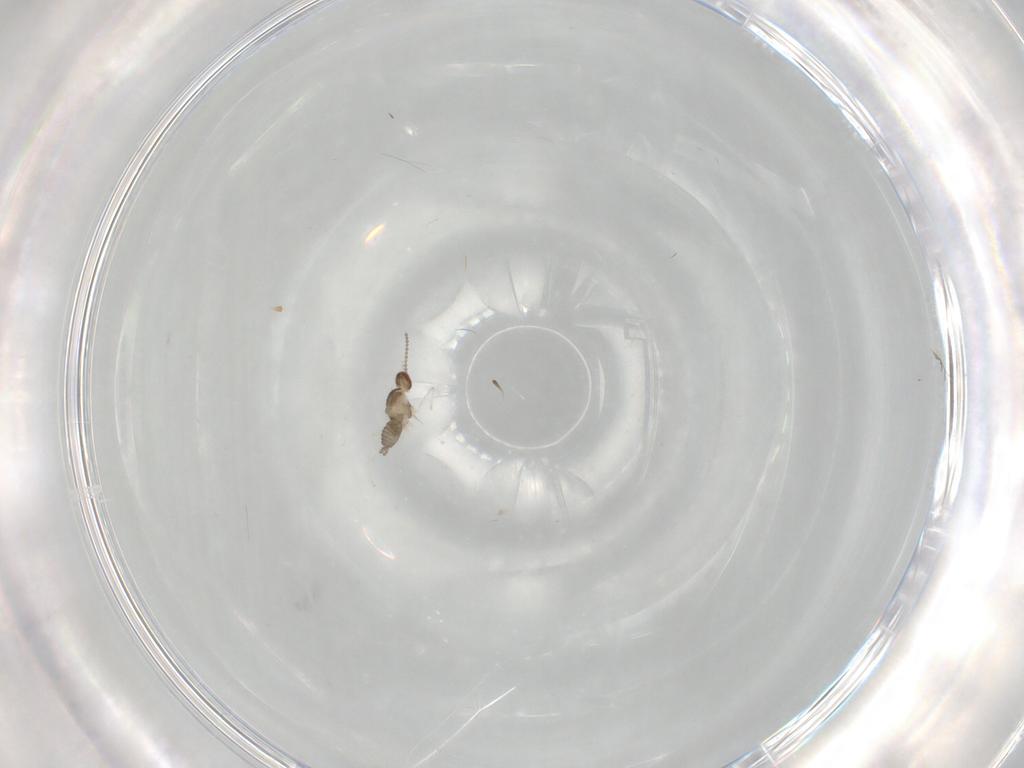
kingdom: Animalia
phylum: Arthropoda
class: Insecta
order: Diptera
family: Cecidomyiidae
